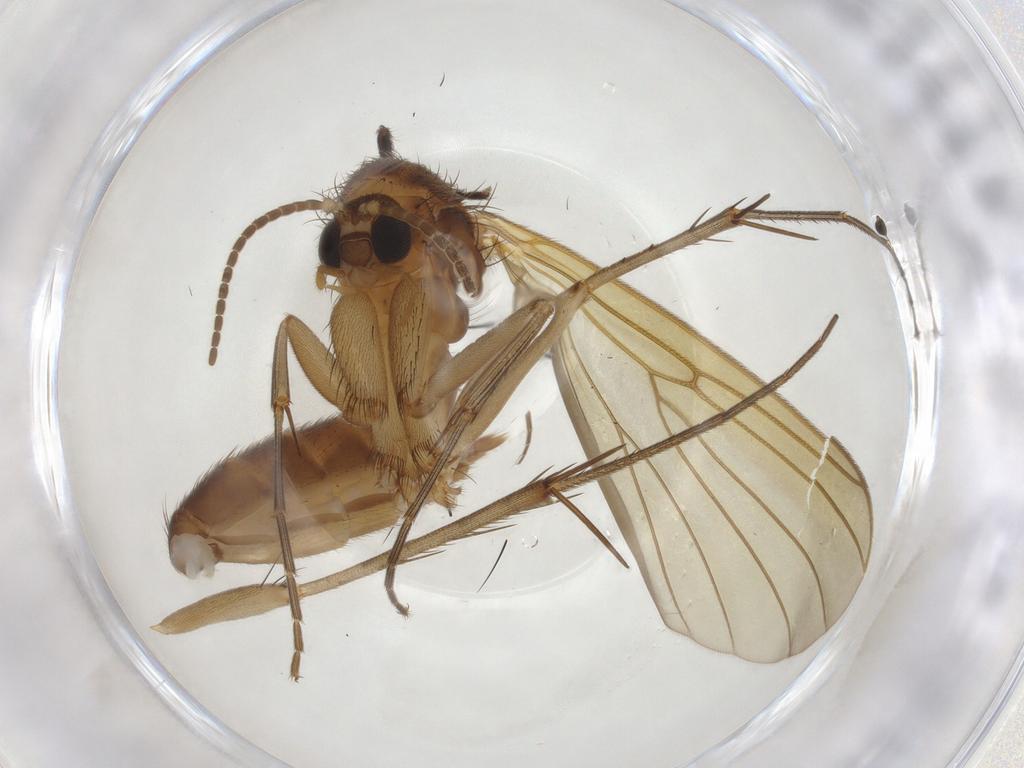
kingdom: Animalia
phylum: Arthropoda
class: Insecta
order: Diptera
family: Mycetophilidae
